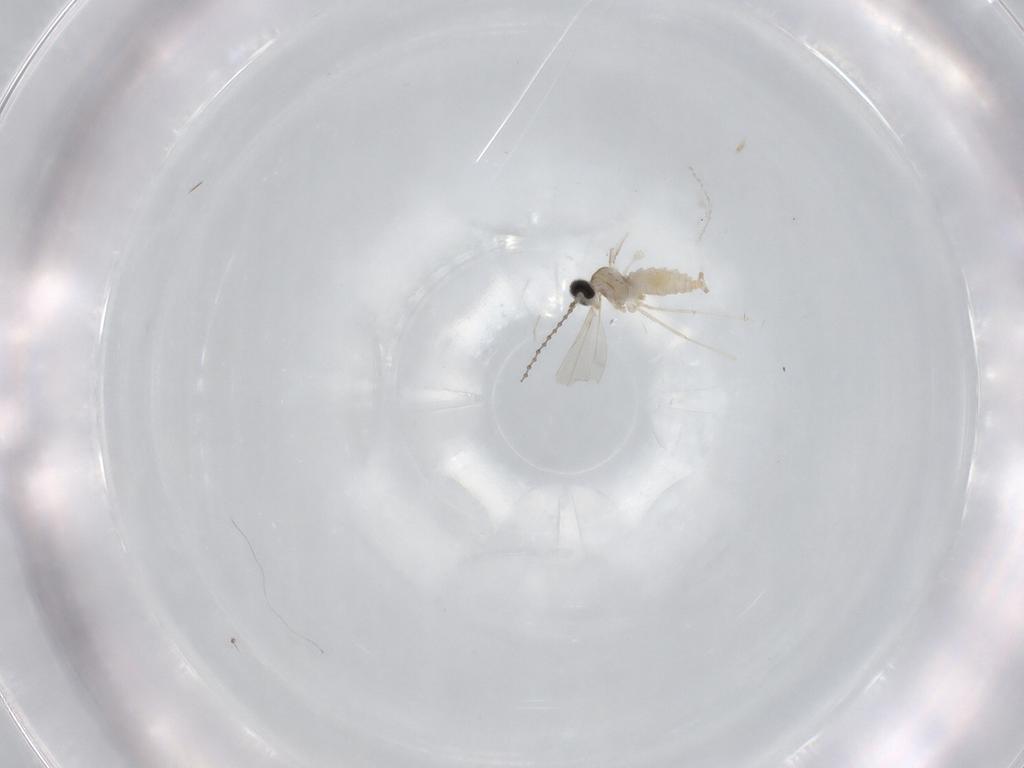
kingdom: Animalia
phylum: Arthropoda
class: Insecta
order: Diptera
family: Cecidomyiidae
